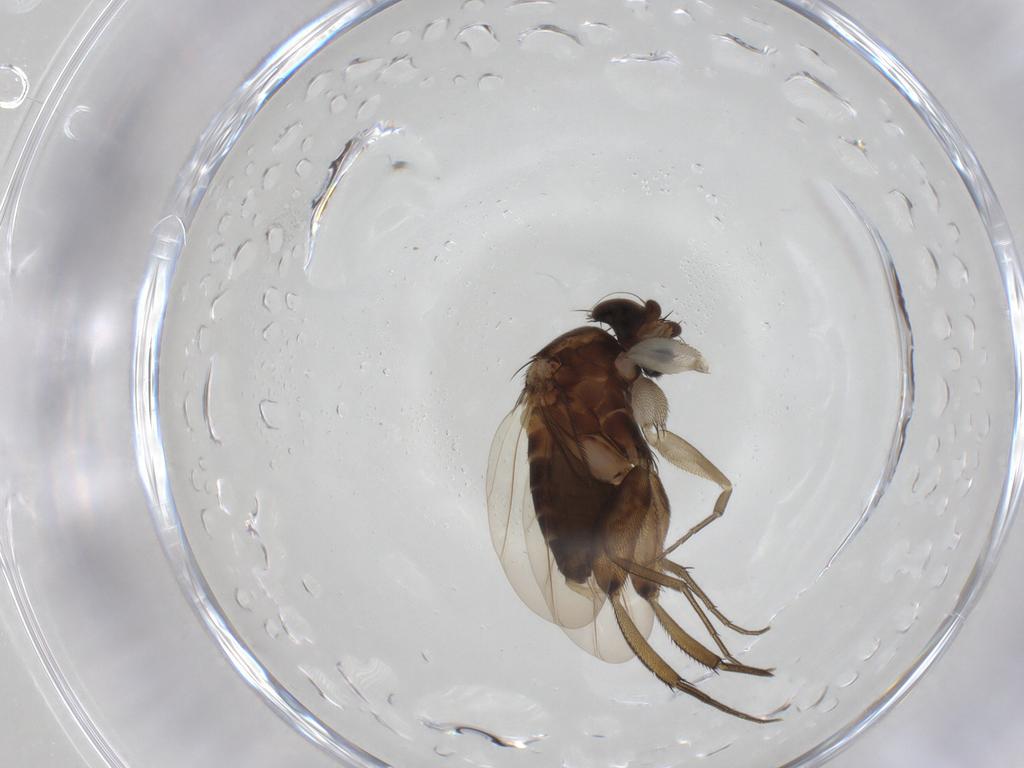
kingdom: Animalia
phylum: Arthropoda
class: Insecta
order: Diptera
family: Phoridae
